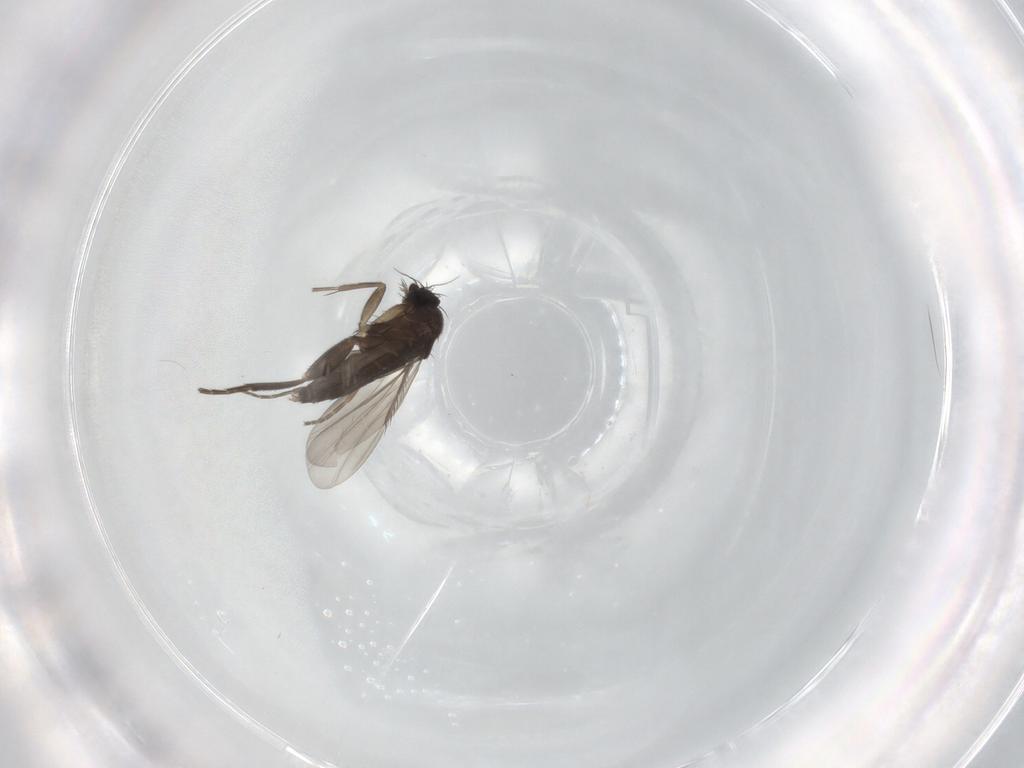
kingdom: Animalia
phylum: Arthropoda
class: Insecta
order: Diptera
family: Phoridae
